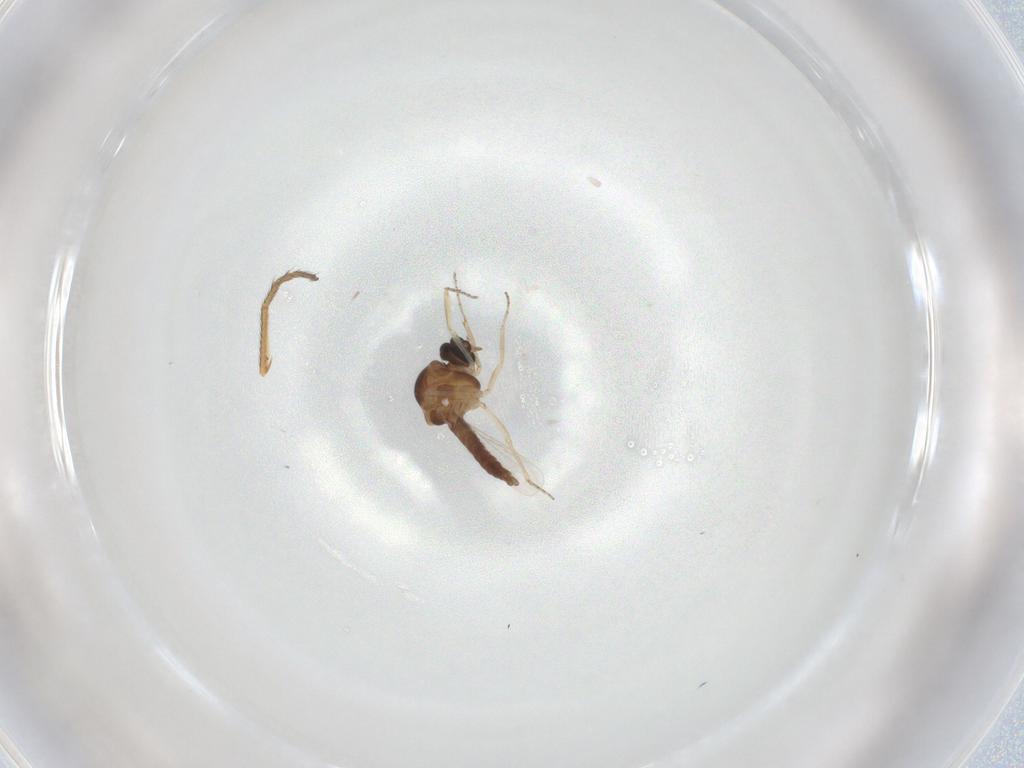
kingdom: Animalia
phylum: Arthropoda
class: Insecta
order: Diptera
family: Ceratopogonidae
